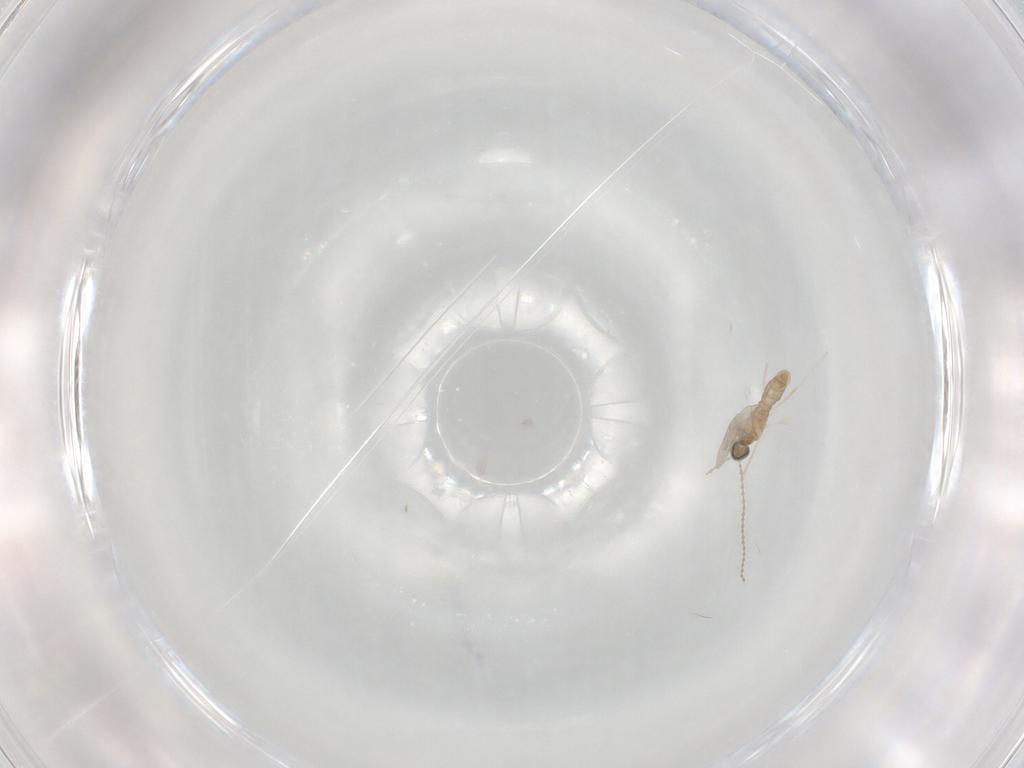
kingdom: Animalia
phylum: Arthropoda
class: Insecta
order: Diptera
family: Cecidomyiidae
